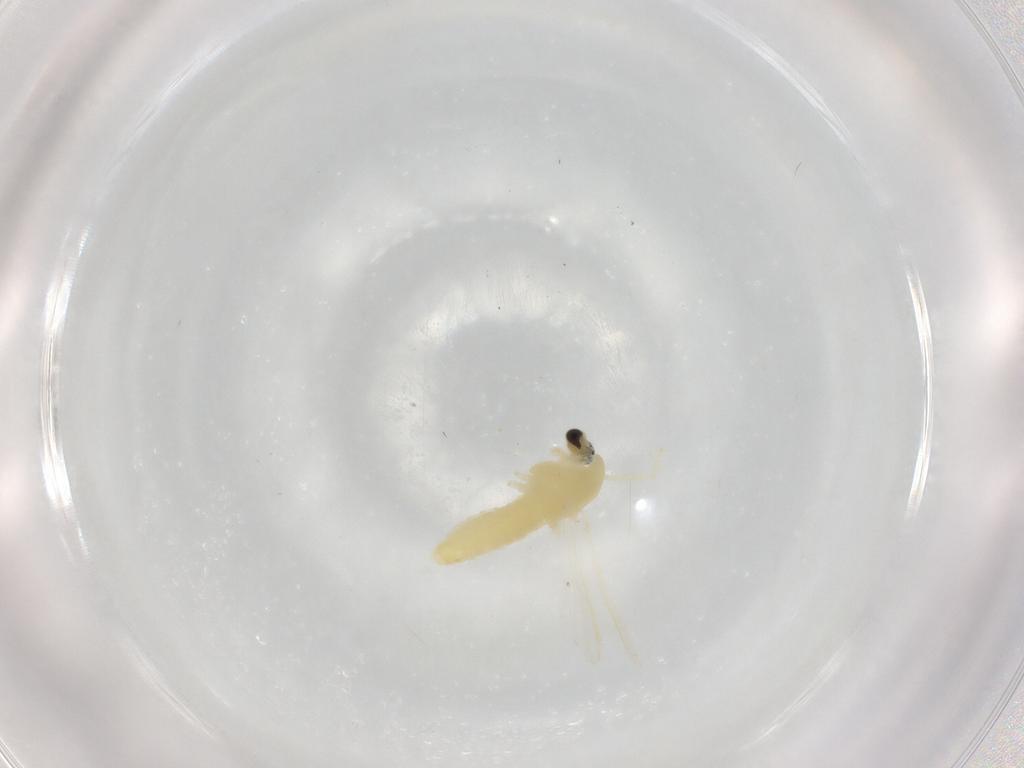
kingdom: Animalia
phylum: Arthropoda
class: Insecta
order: Diptera
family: Chironomidae
